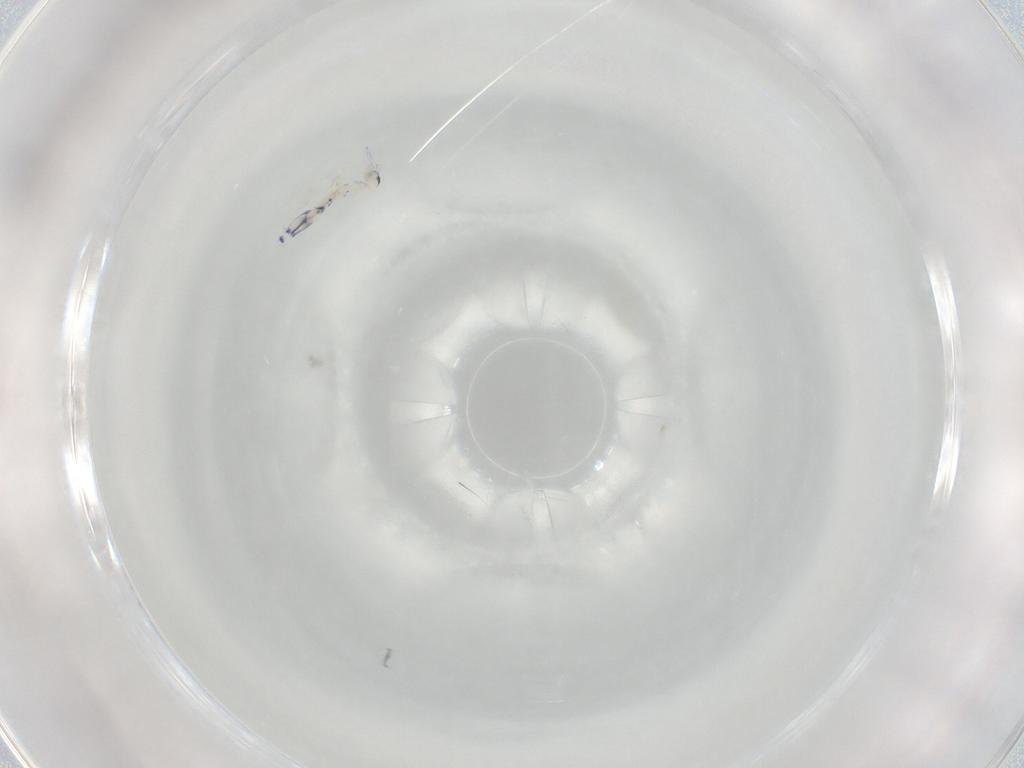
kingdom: Animalia
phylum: Arthropoda
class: Collembola
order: Entomobryomorpha
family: Entomobryidae
